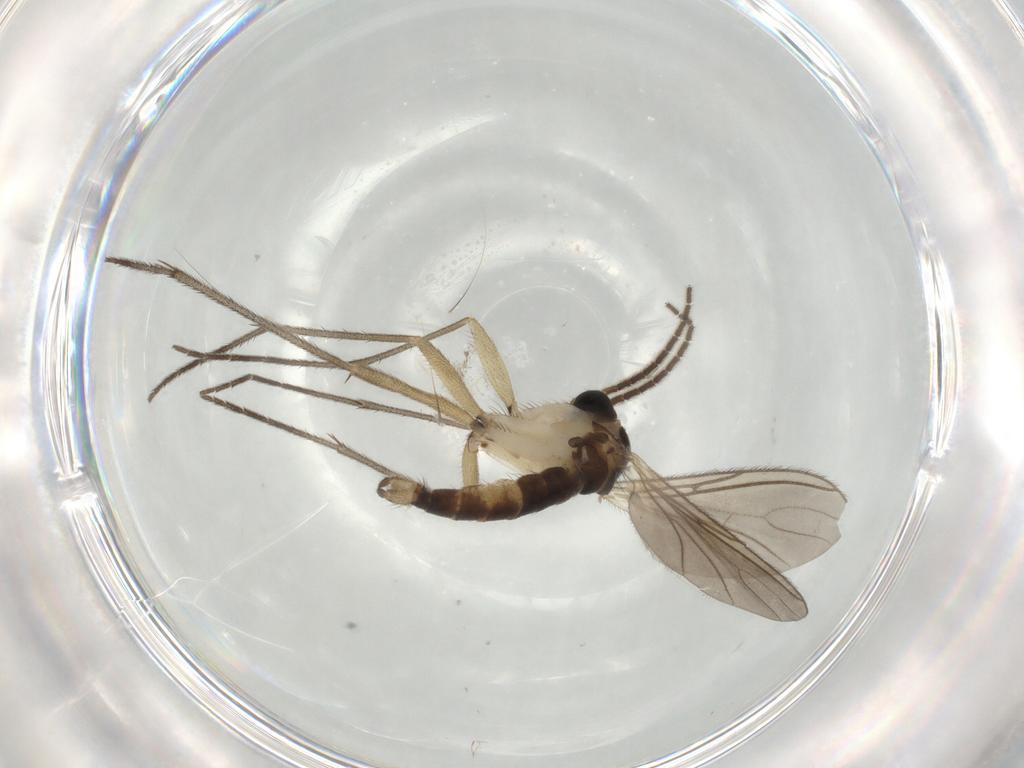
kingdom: Animalia
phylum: Arthropoda
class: Insecta
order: Diptera
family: Sciaridae
